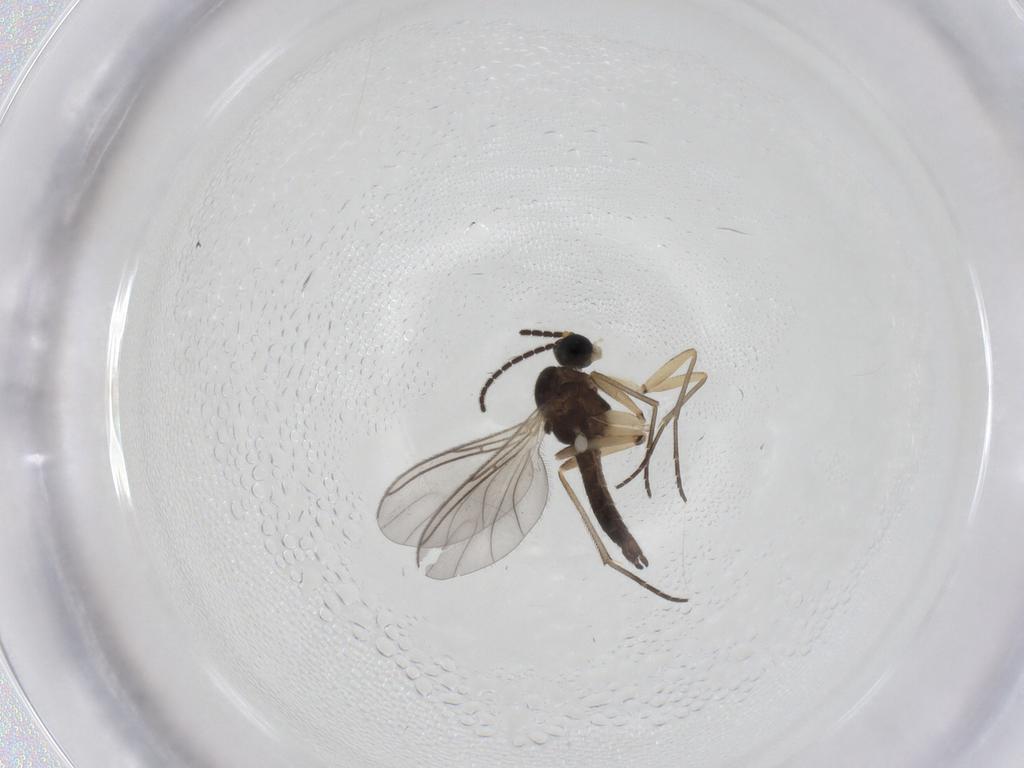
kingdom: Animalia
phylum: Arthropoda
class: Insecta
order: Diptera
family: Sciaridae
